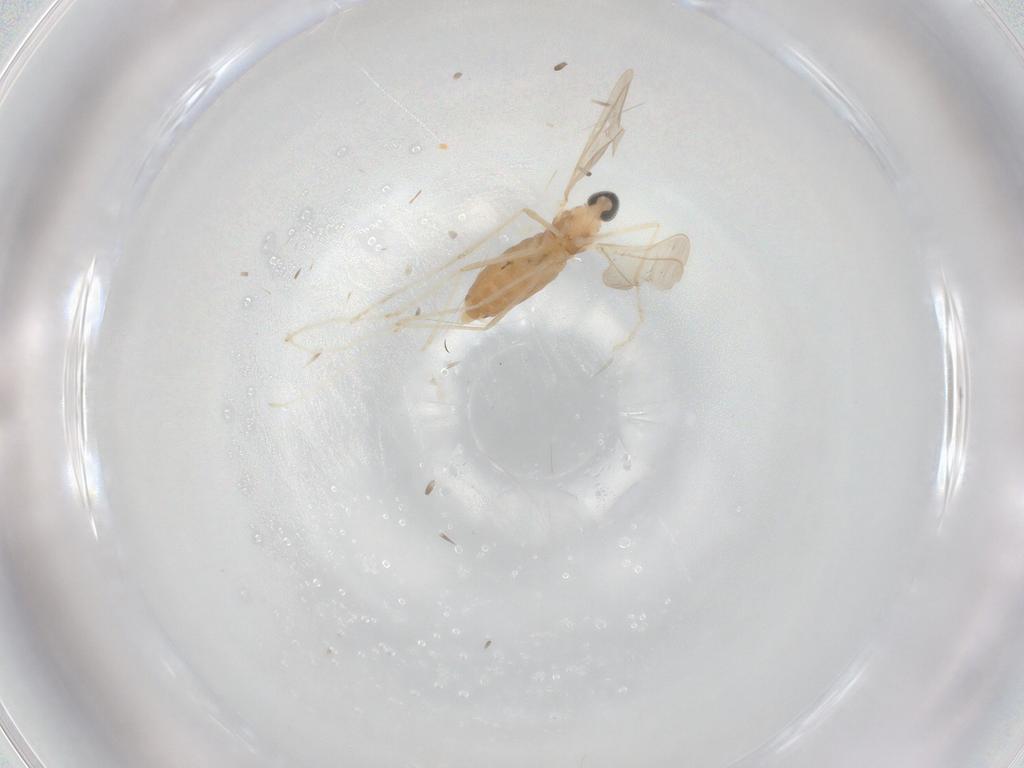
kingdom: Animalia
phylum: Arthropoda
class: Insecta
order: Diptera
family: Cecidomyiidae
